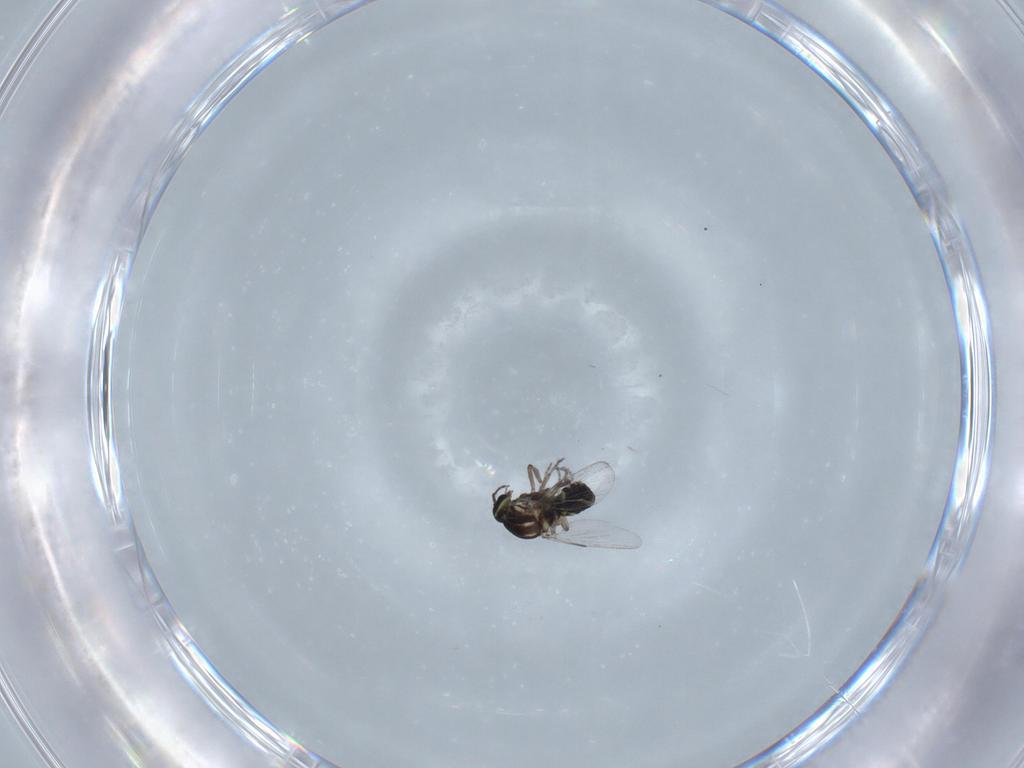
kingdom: Animalia
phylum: Arthropoda
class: Insecta
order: Diptera
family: Ceratopogonidae
